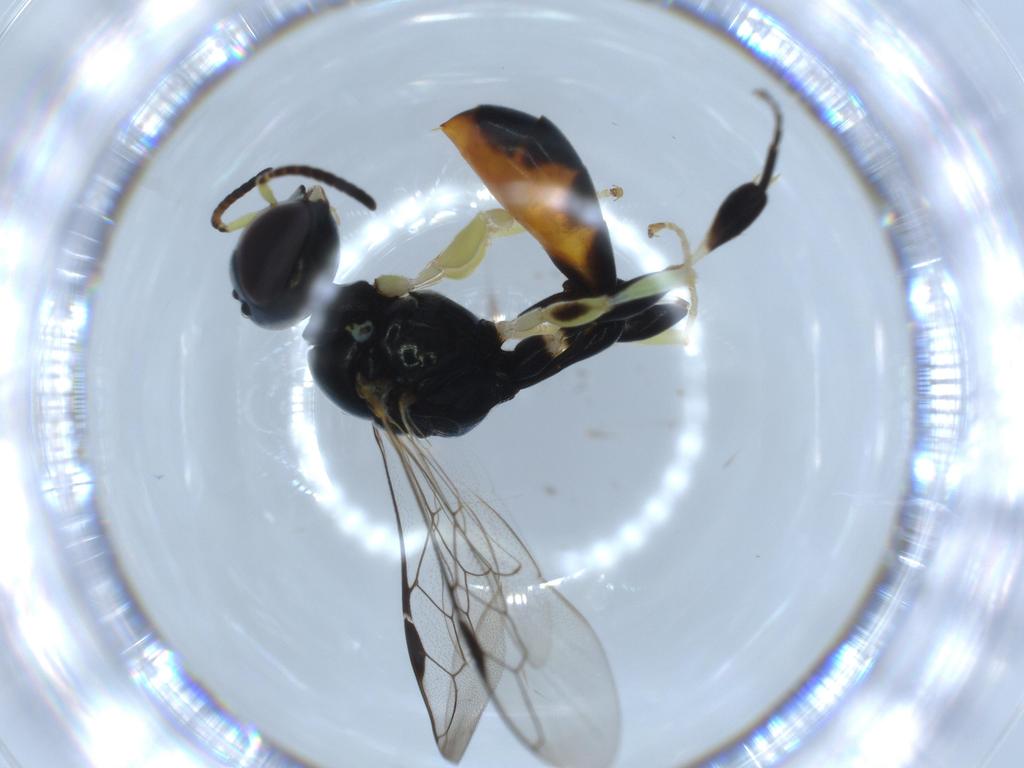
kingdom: Animalia
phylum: Arthropoda
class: Insecta
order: Hymenoptera
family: Crabronidae
